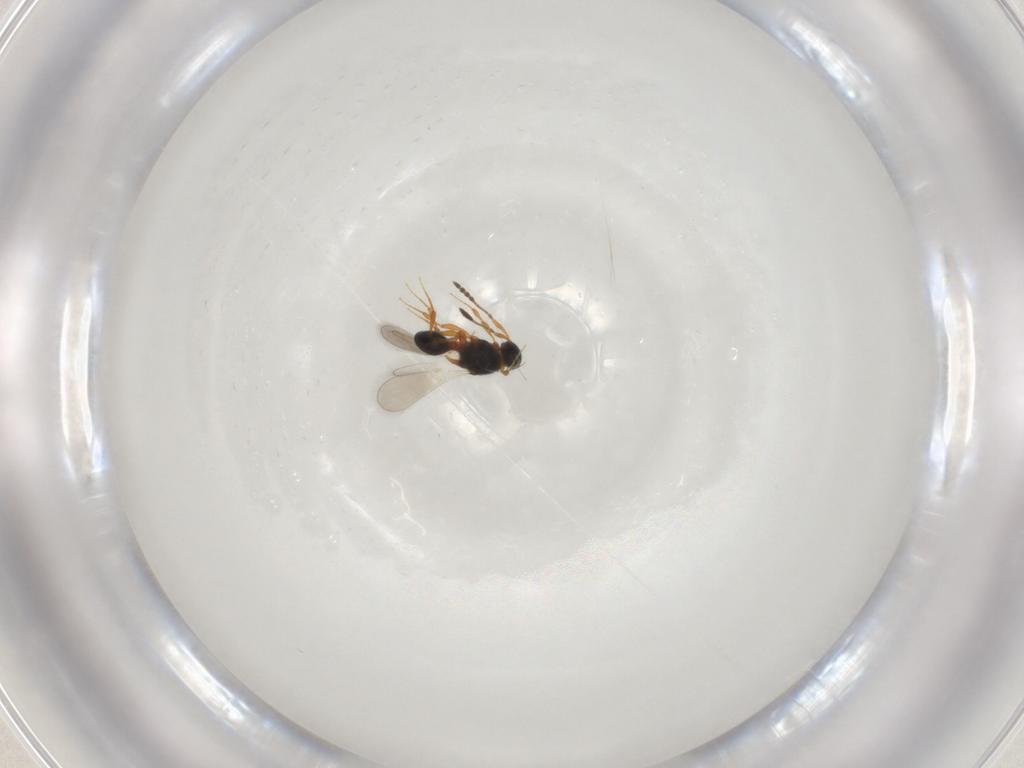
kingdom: Animalia
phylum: Arthropoda
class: Insecta
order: Hymenoptera
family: Platygastridae
